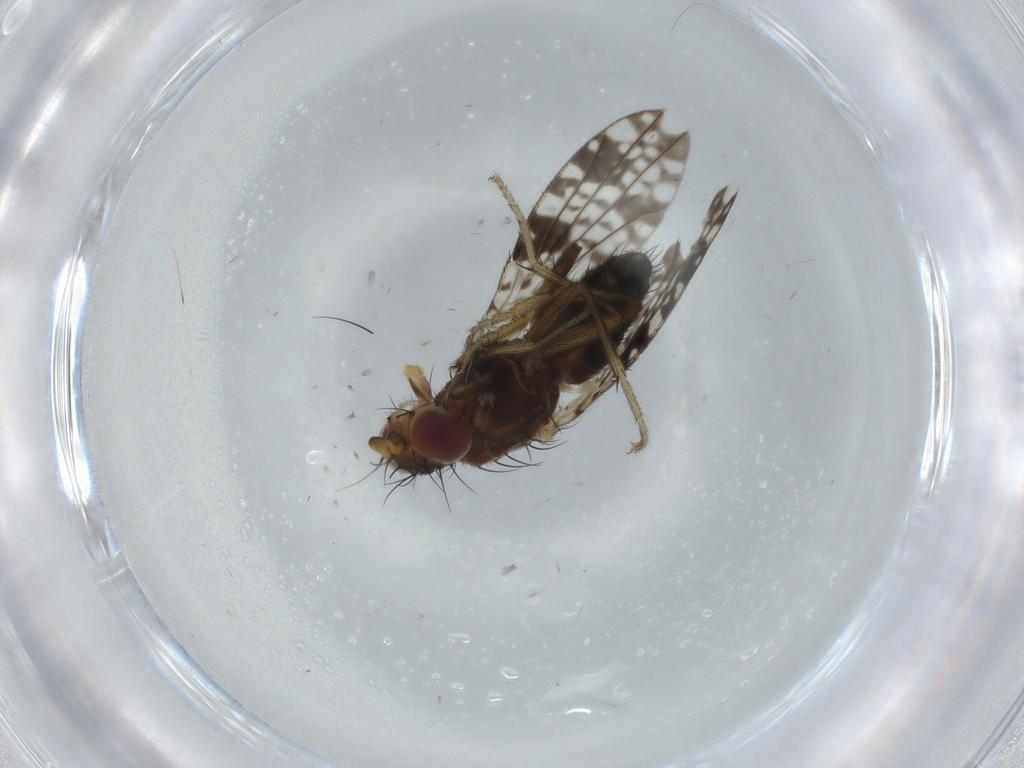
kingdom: Animalia
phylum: Arthropoda
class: Insecta
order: Diptera
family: Tephritidae
